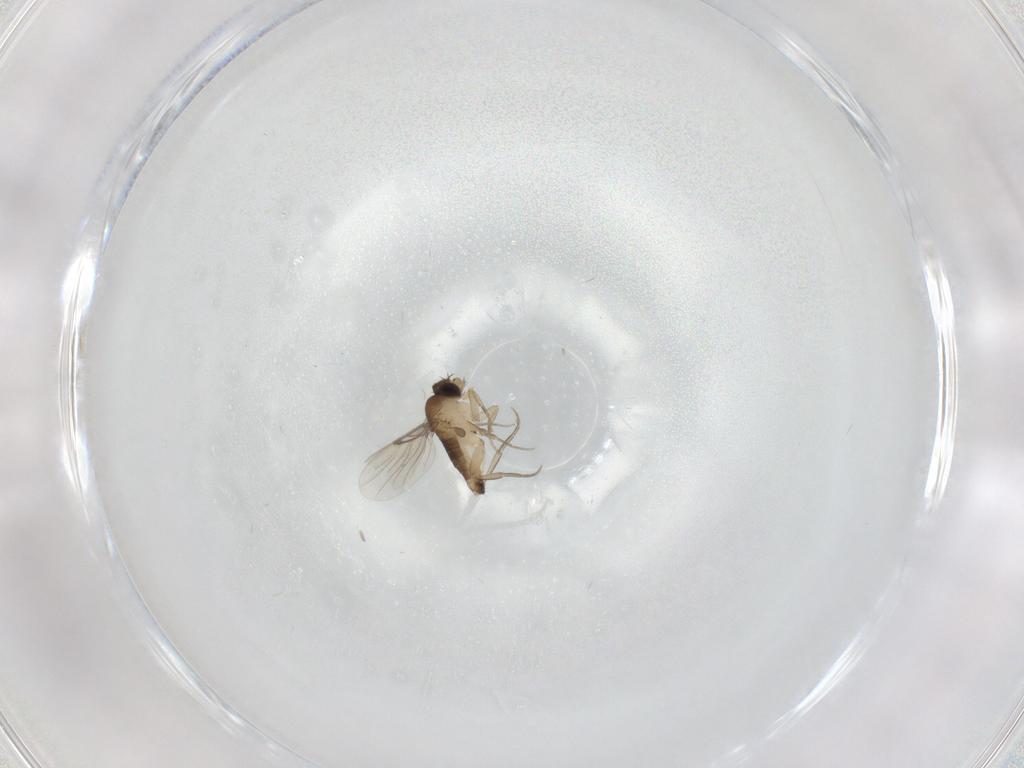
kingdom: Animalia
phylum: Arthropoda
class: Insecta
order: Diptera
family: Phoridae
